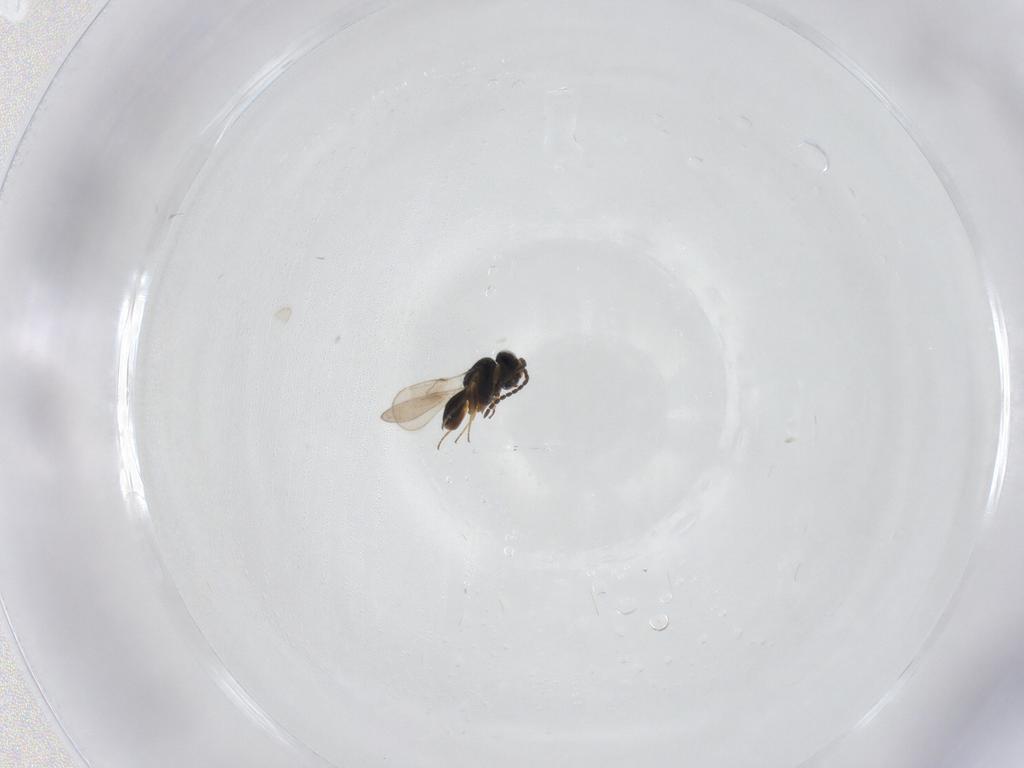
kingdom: Animalia
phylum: Arthropoda
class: Insecta
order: Hymenoptera
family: Scelionidae
